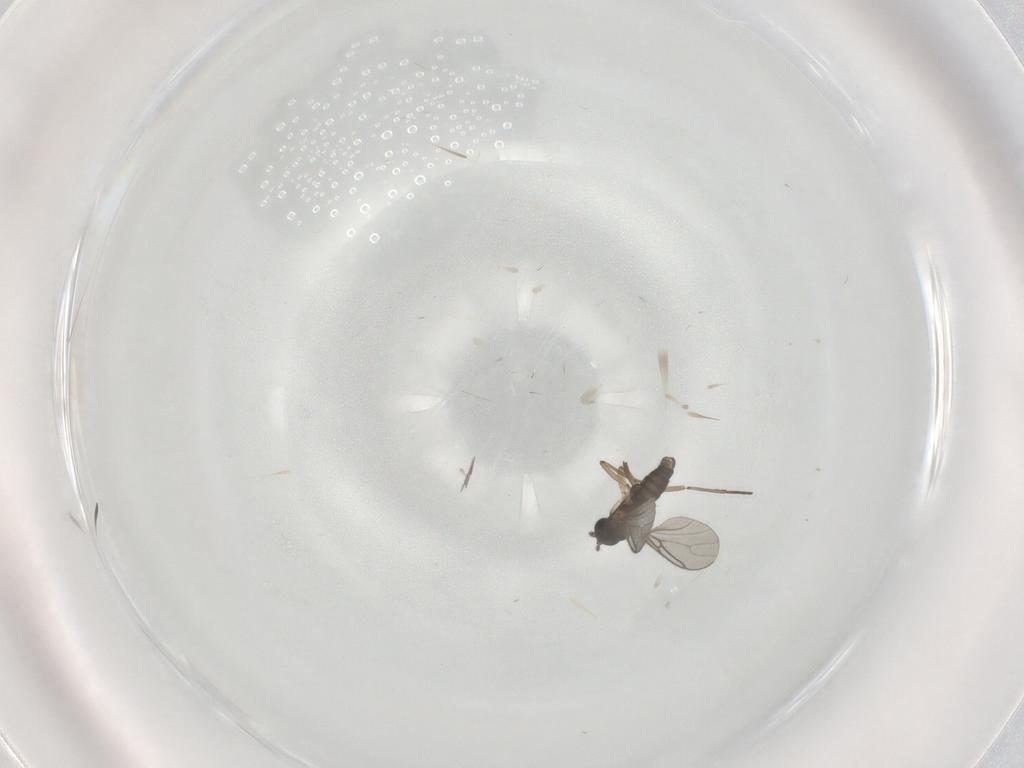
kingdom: Animalia
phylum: Arthropoda
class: Insecta
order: Diptera
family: Sciaridae
